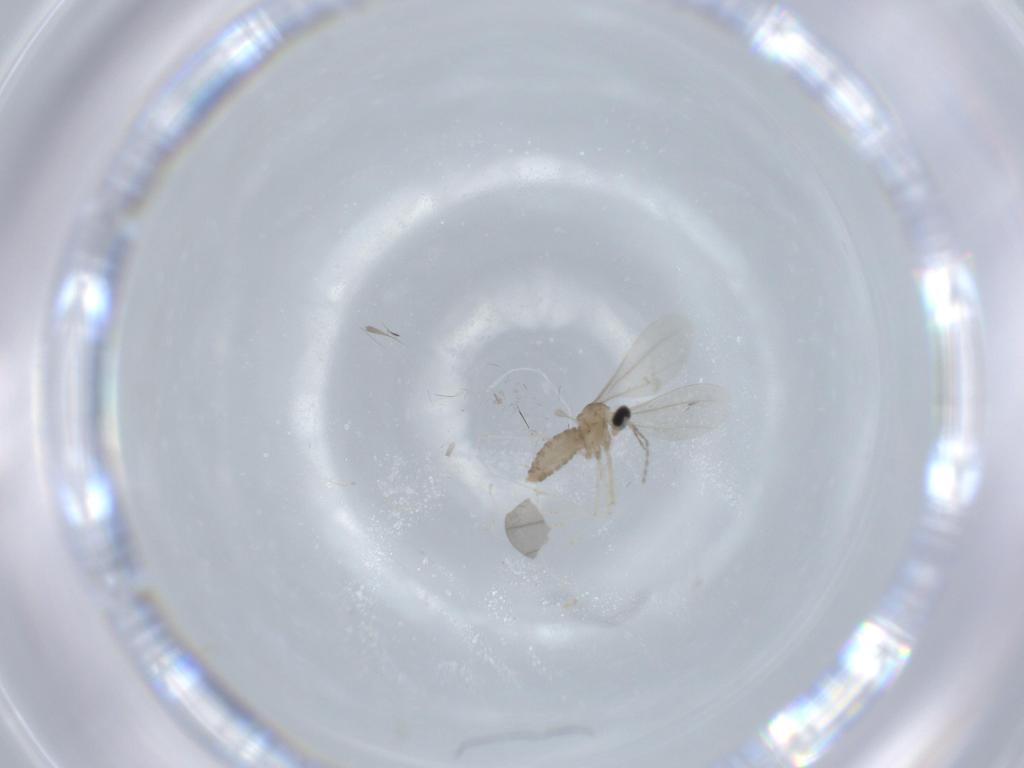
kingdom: Animalia
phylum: Arthropoda
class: Insecta
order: Diptera
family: Cecidomyiidae
